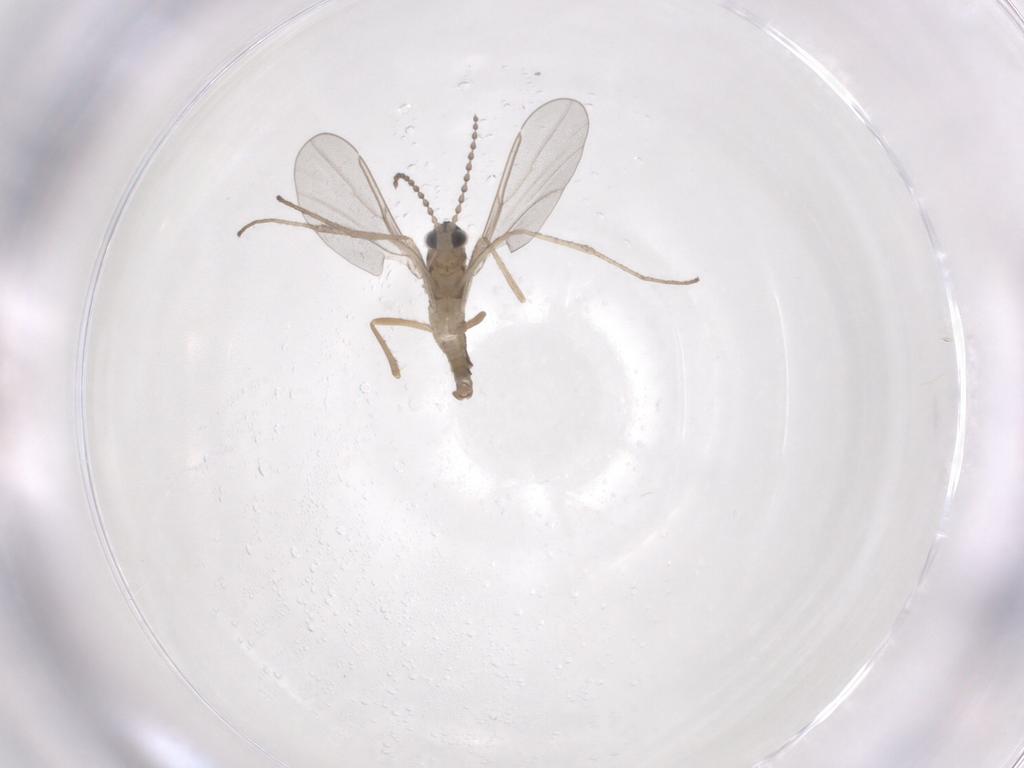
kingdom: Animalia
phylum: Arthropoda
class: Insecta
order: Diptera
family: Cecidomyiidae
